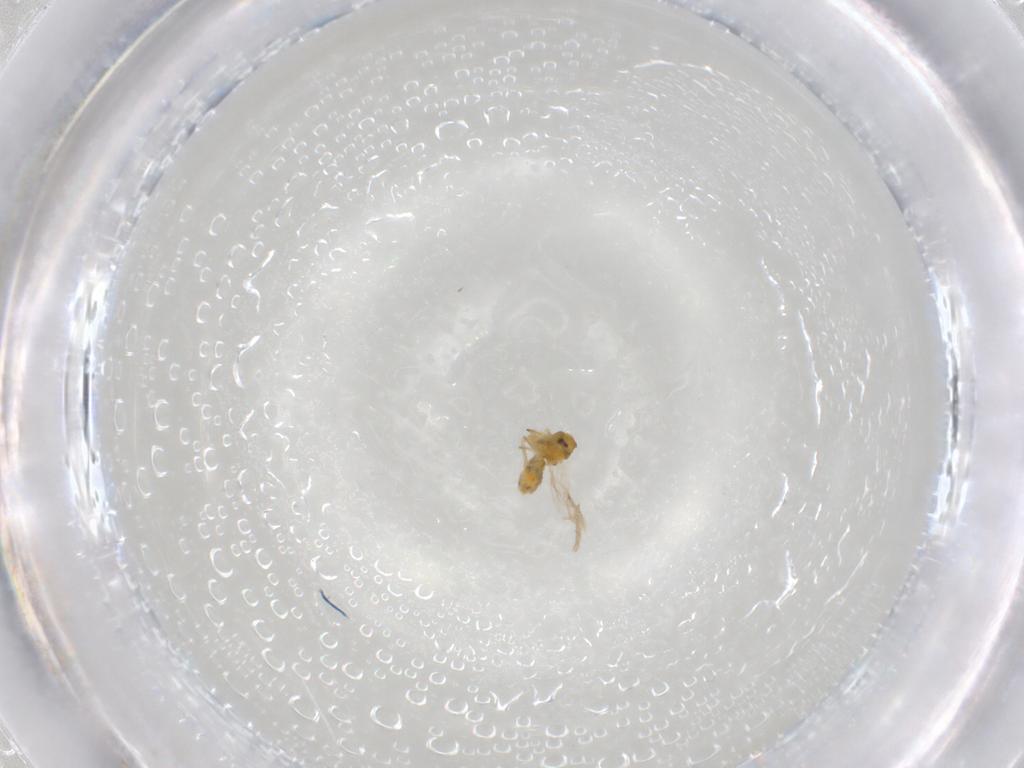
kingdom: Animalia
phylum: Arthropoda
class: Insecta
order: Hemiptera
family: Aleyrodidae
